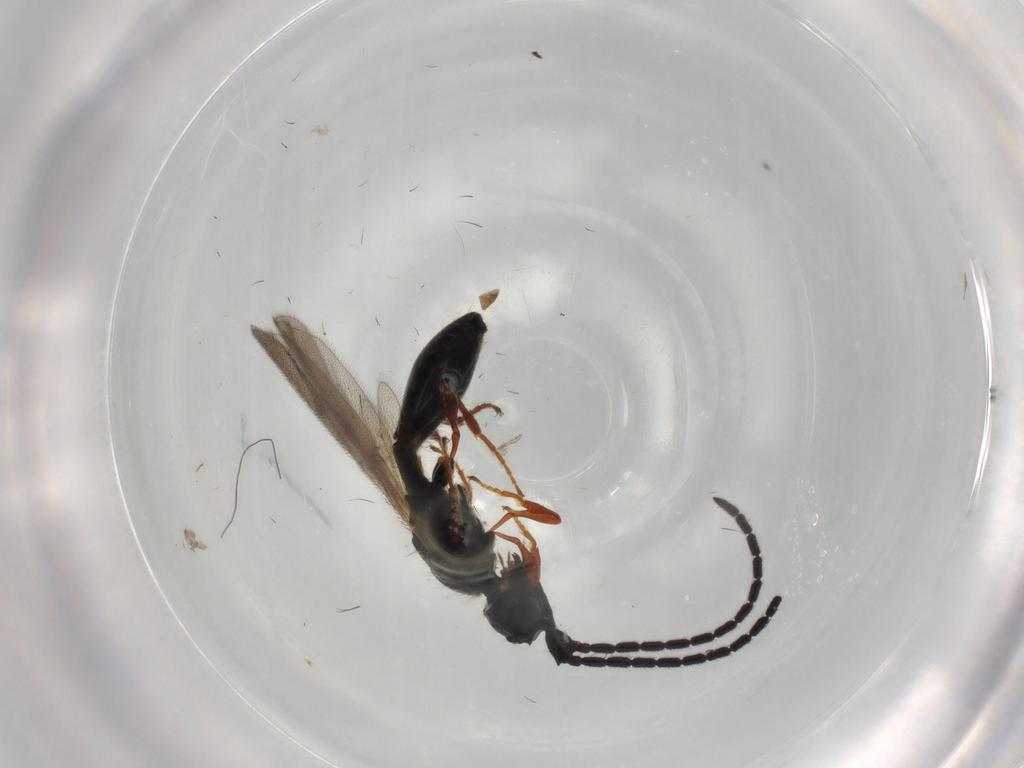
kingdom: Animalia
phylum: Arthropoda
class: Insecta
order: Hymenoptera
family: Diapriidae
